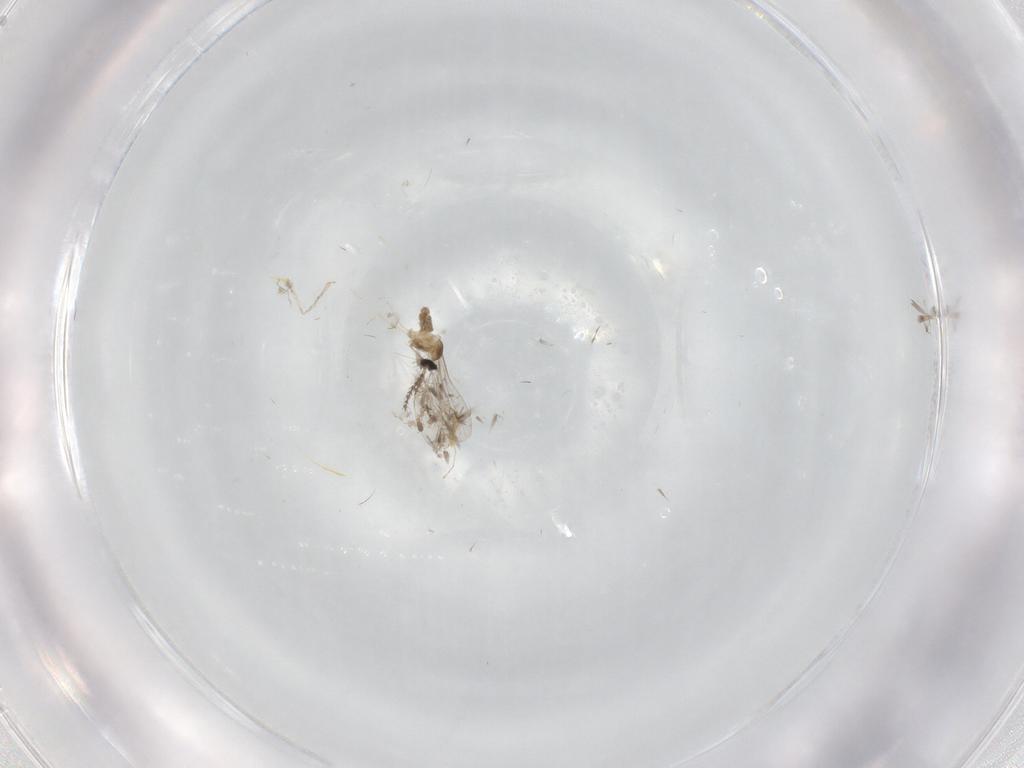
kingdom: Animalia
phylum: Arthropoda
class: Insecta
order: Diptera
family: Cecidomyiidae
